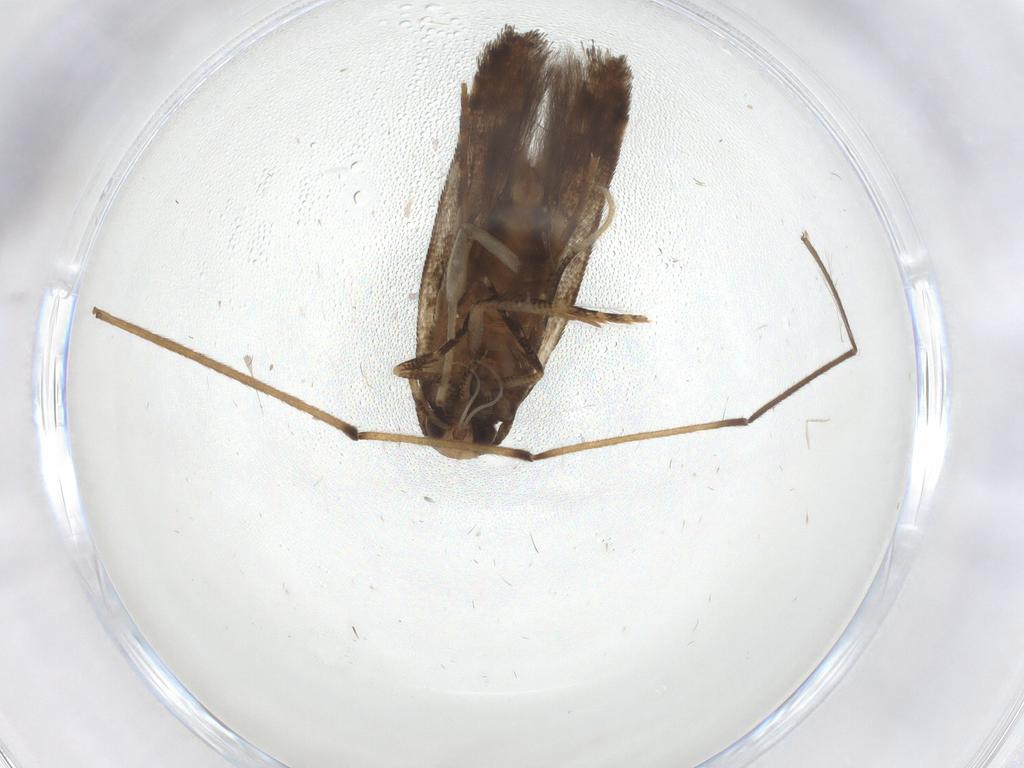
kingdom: Animalia
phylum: Arthropoda
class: Insecta
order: Lepidoptera
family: Cosmopterigidae
